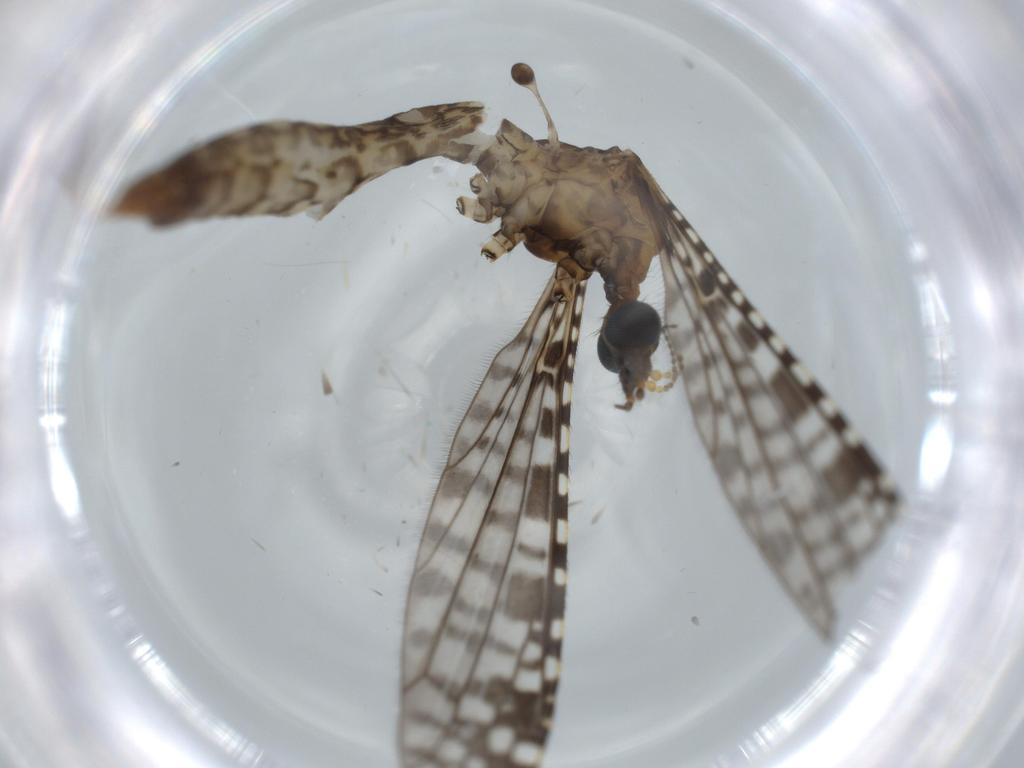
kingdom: Animalia
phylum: Arthropoda
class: Insecta
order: Diptera
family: Limoniidae
